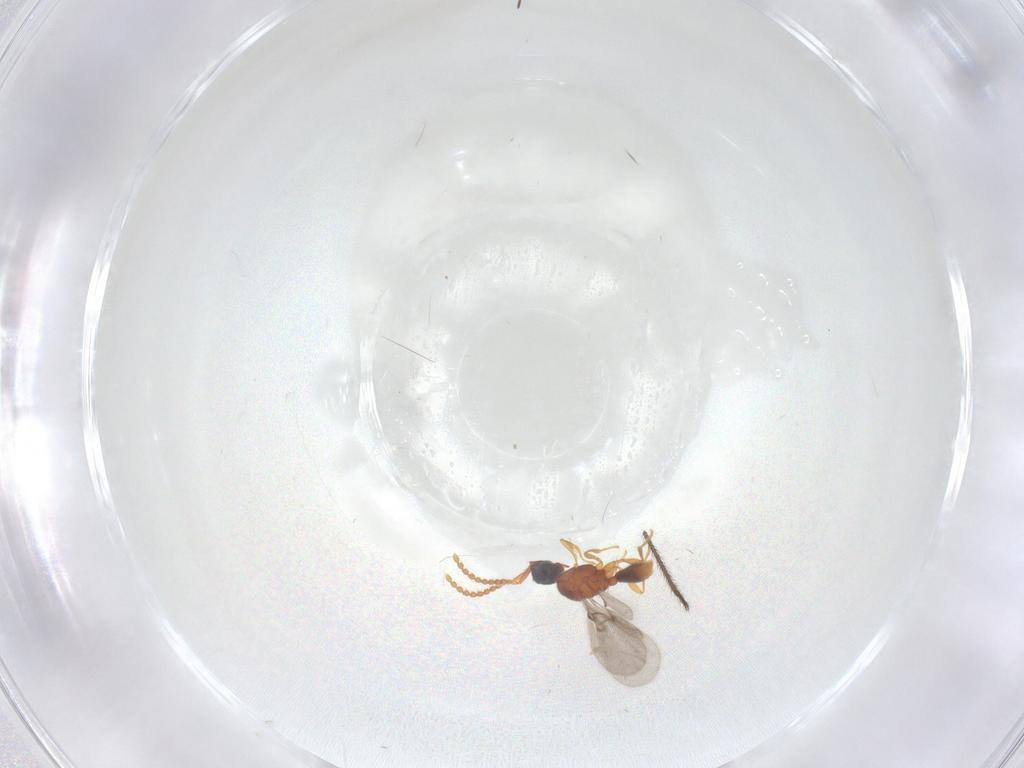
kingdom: Animalia
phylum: Arthropoda
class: Insecta
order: Hymenoptera
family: Diapriidae
